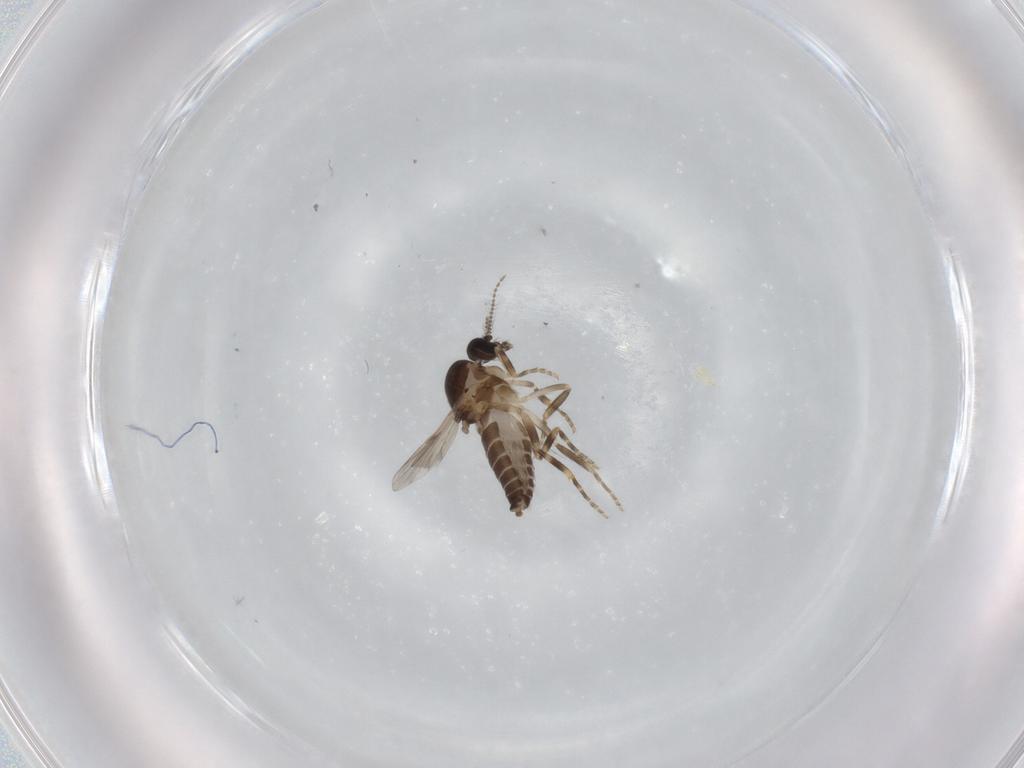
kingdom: Animalia
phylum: Arthropoda
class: Insecta
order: Diptera
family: Ceratopogonidae
